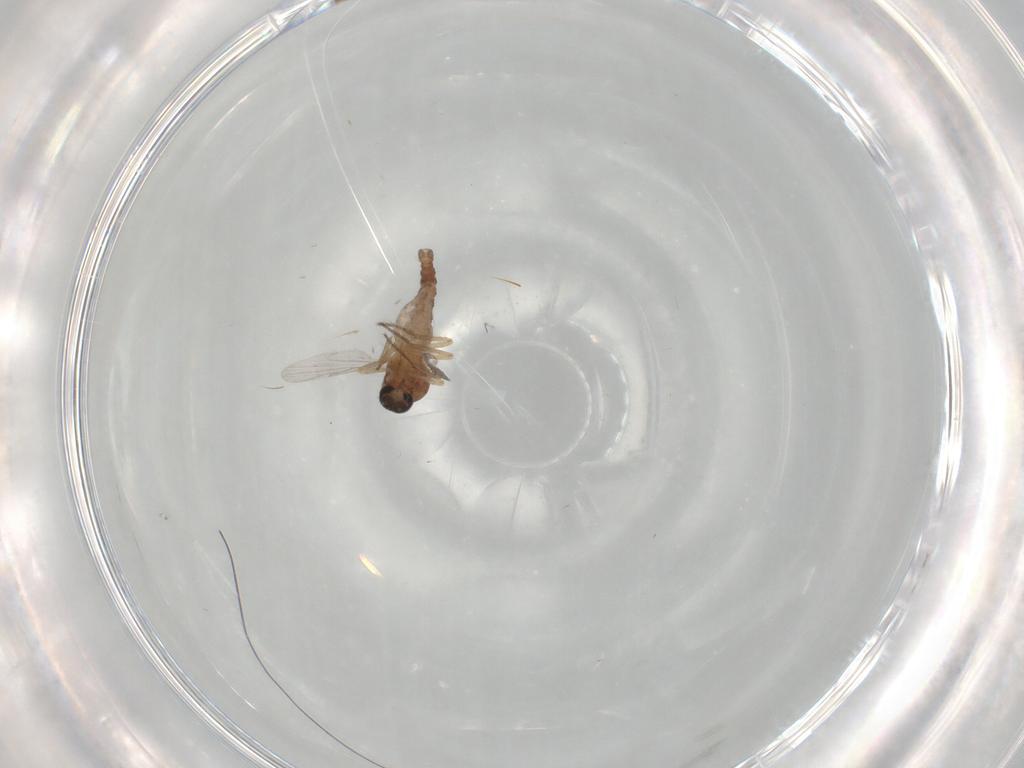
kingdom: Animalia
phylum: Arthropoda
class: Insecta
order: Diptera
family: Ceratopogonidae
